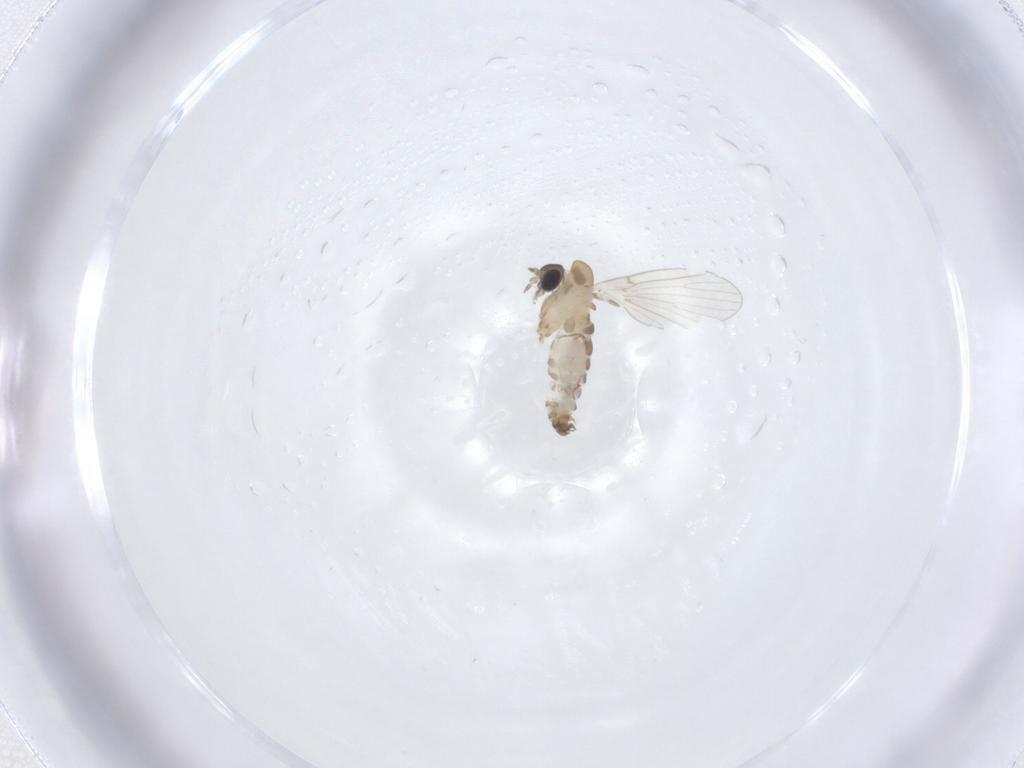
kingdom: Animalia
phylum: Arthropoda
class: Insecta
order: Diptera
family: Psychodidae
